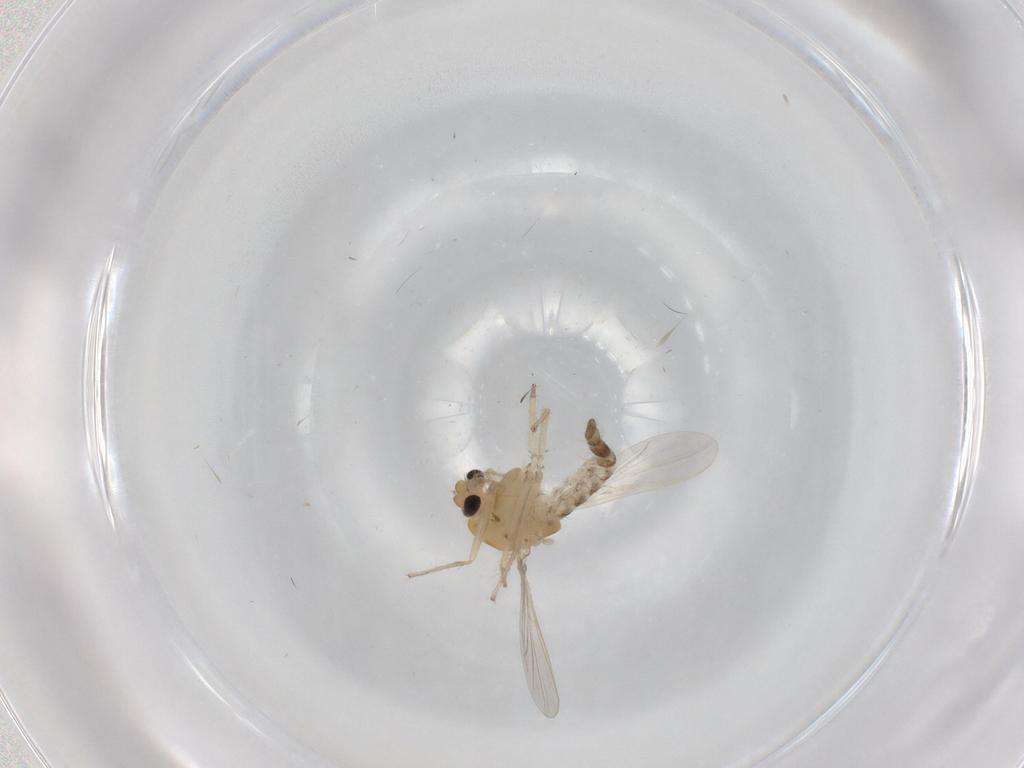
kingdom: Animalia
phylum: Arthropoda
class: Insecta
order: Diptera
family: Chironomidae
